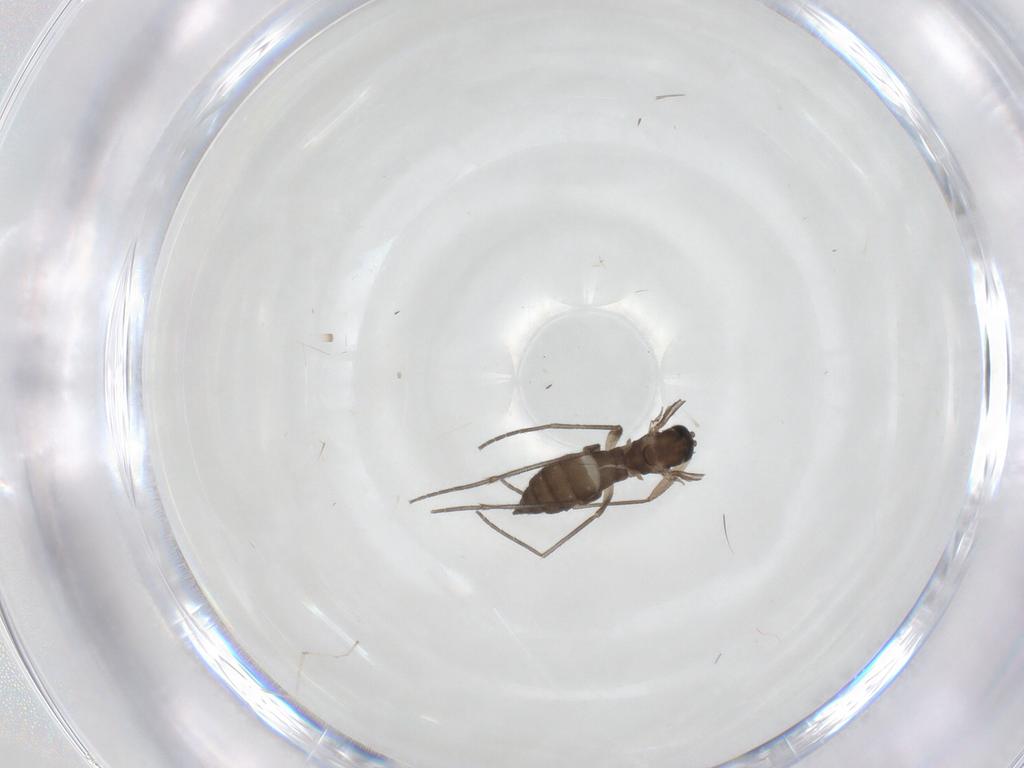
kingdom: Animalia
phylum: Arthropoda
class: Insecta
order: Diptera
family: Sciaridae
